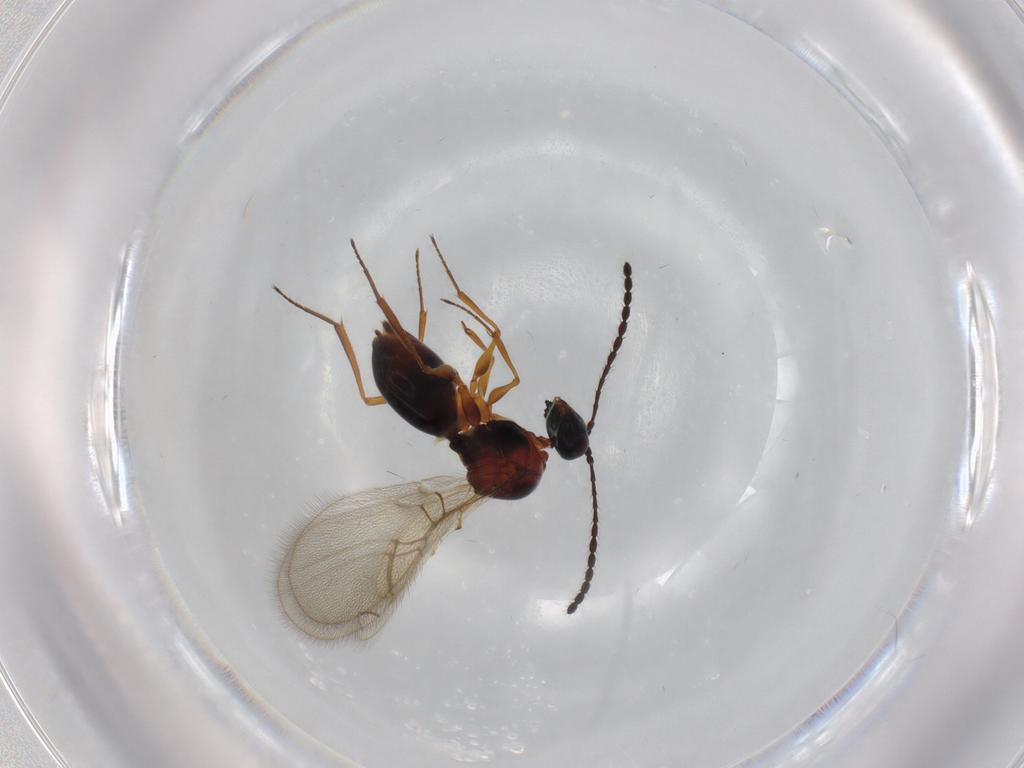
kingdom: Animalia
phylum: Arthropoda
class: Insecta
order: Hymenoptera
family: Figitidae
